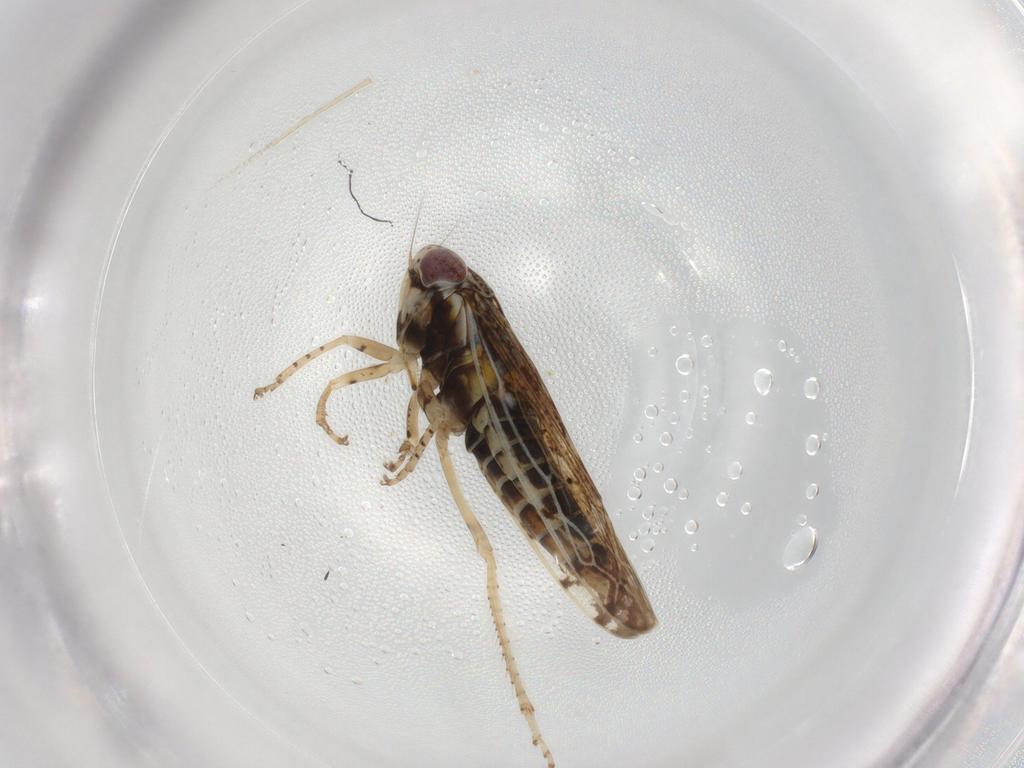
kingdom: Animalia
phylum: Arthropoda
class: Insecta
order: Hemiptera
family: Cicadellidae
